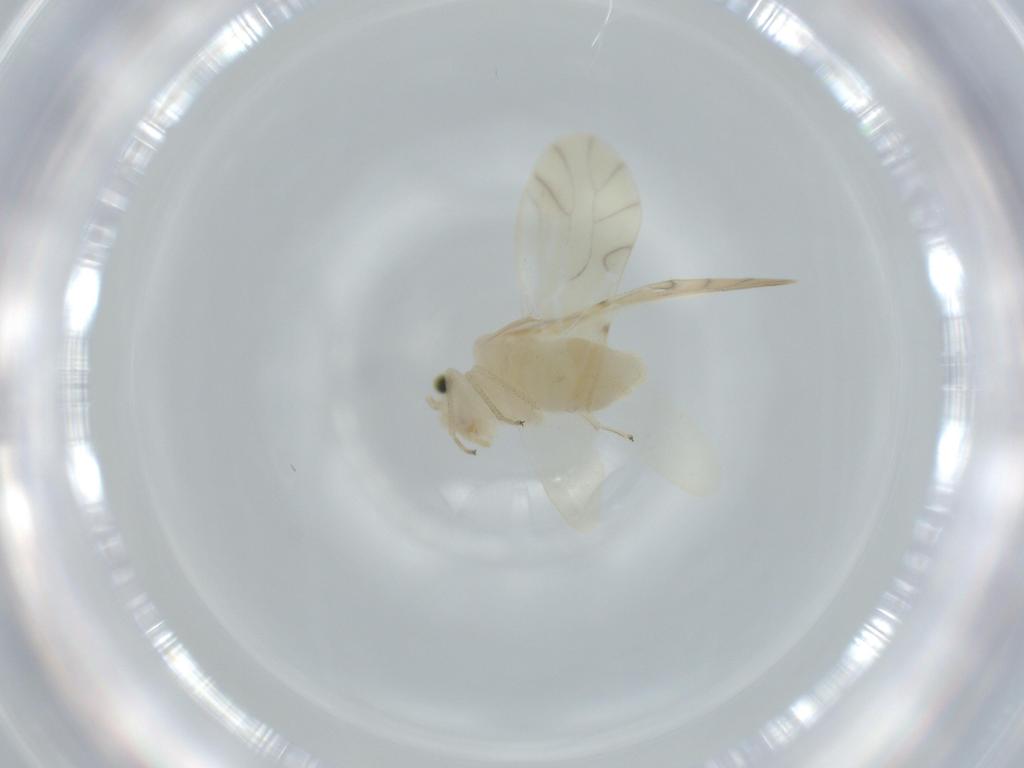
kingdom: Animalia
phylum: Arthropoda
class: Insecta
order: Psocodea
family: Caeciliusidae
